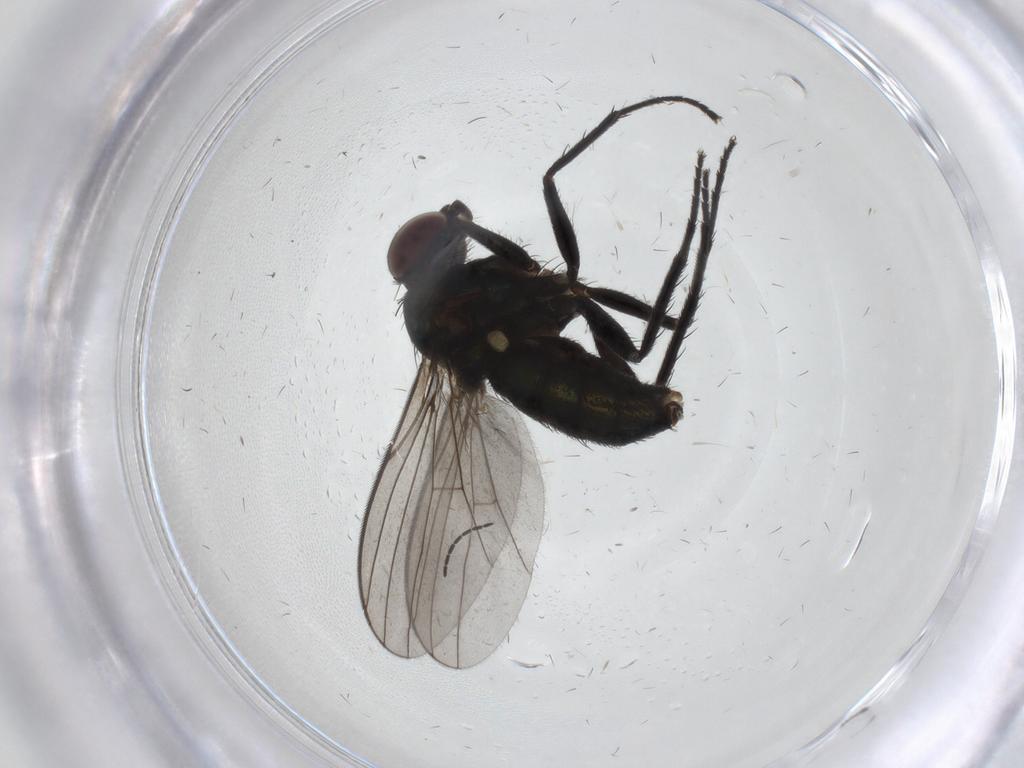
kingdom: Animalia
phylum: Arthropoda
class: Insecta
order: Diptera
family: Dolichopodidae
